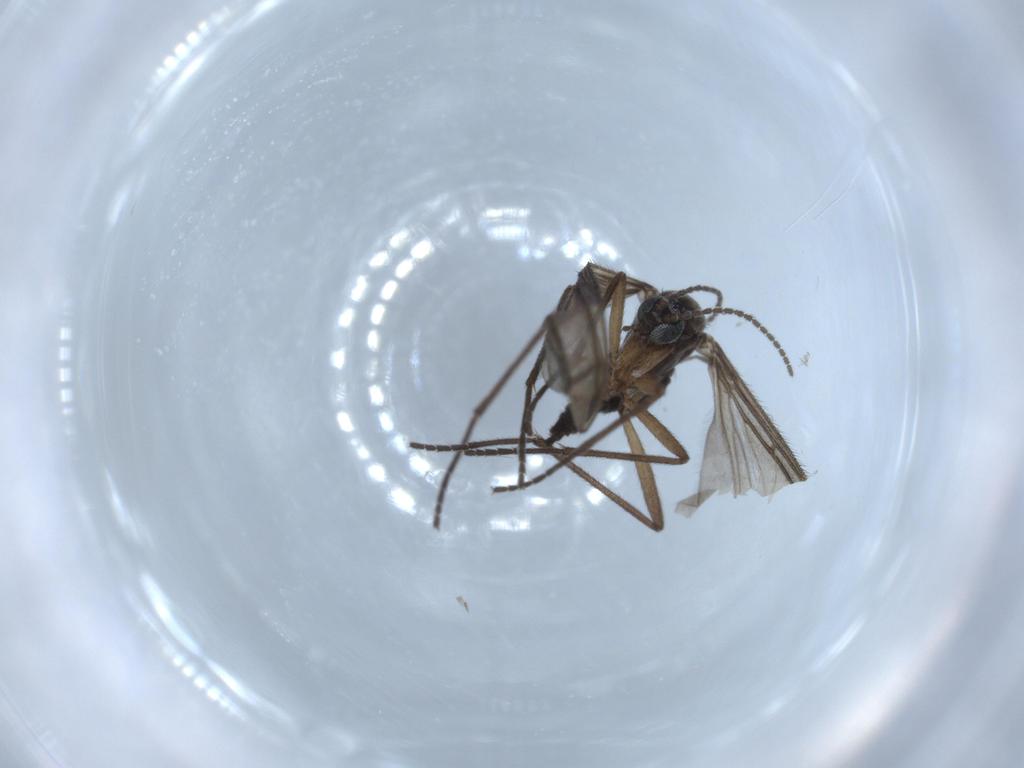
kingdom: Animalia
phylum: Arthropoda
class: Insecta
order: Diptera
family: Sciaridae
